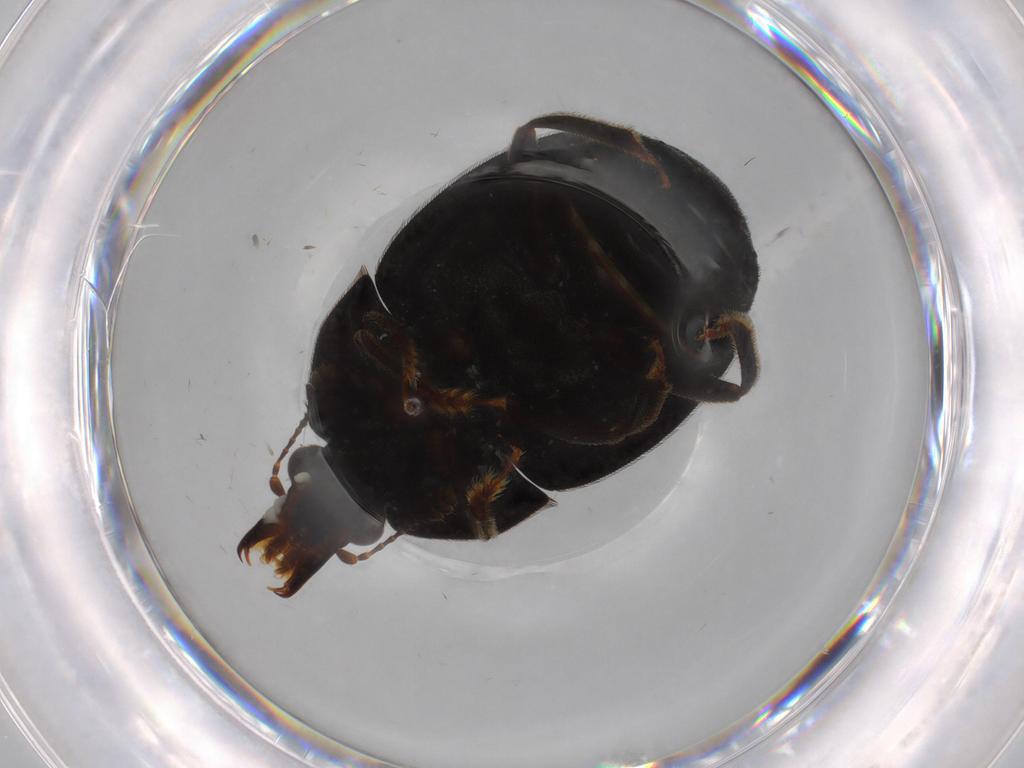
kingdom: Animalia
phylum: Arthropoda
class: Insecta
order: Coleoptera
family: Elateridae
